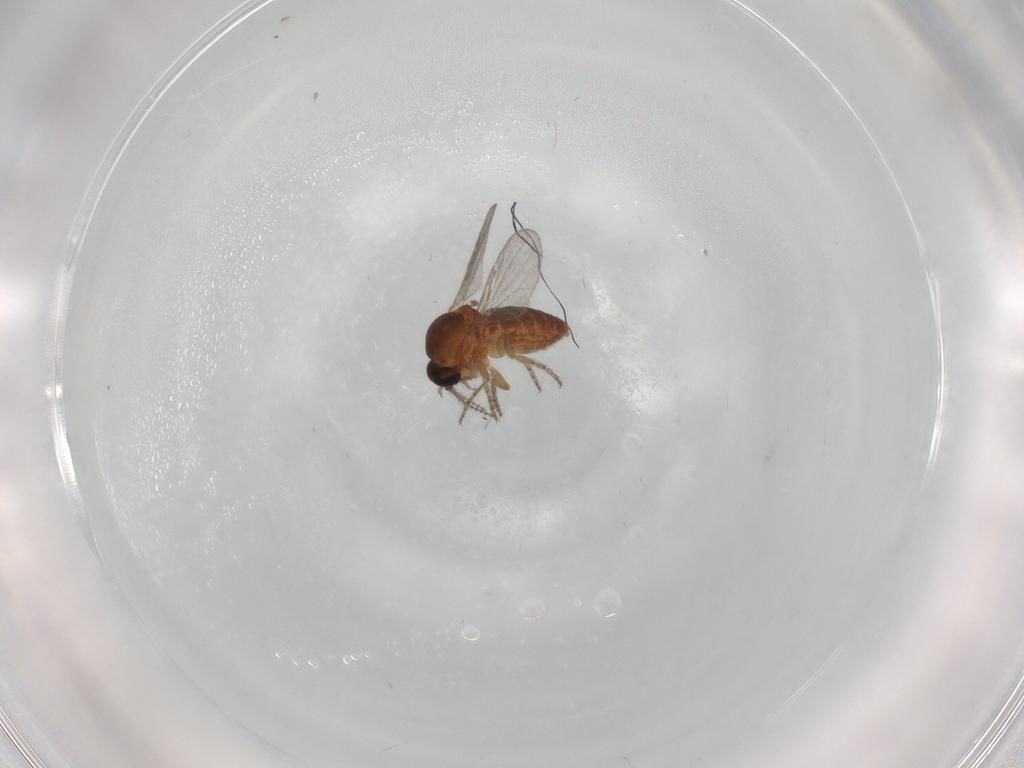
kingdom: Animalia
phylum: Arthropoda
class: Insecta
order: Diptera
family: Ceratopogonidae
